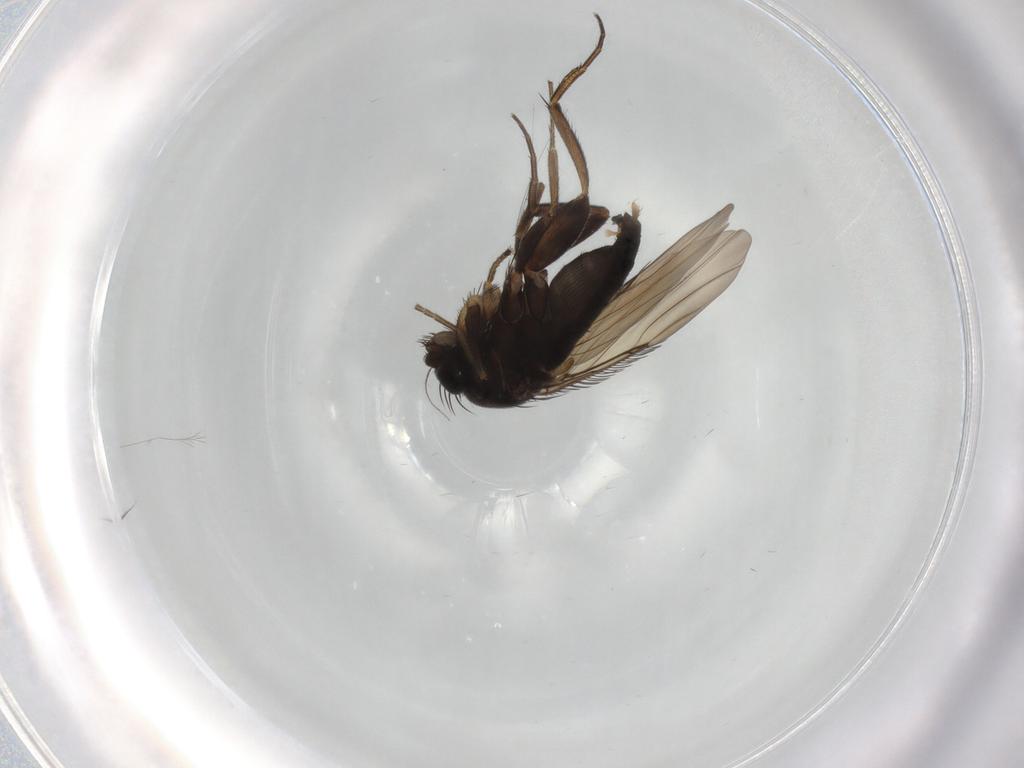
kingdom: Animalia
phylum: Arthropoda
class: Insecta
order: Diptera
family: Phoridae
